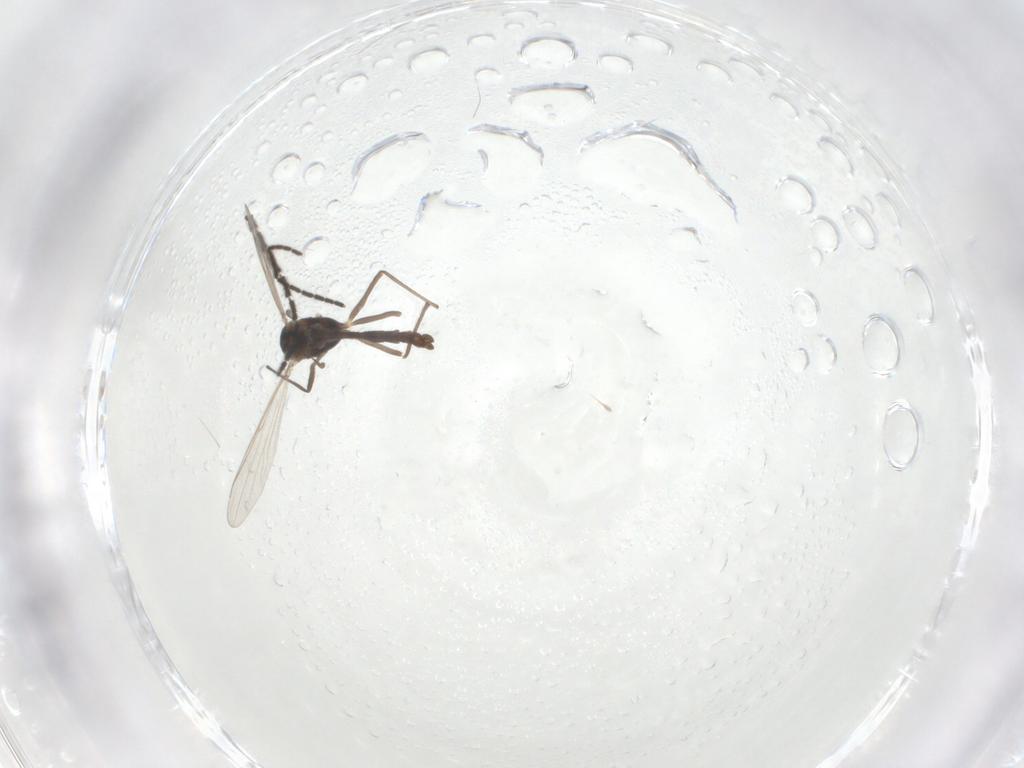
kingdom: Animalia
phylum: Arthropoda
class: Insecta
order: Diptera
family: Chironomidae
